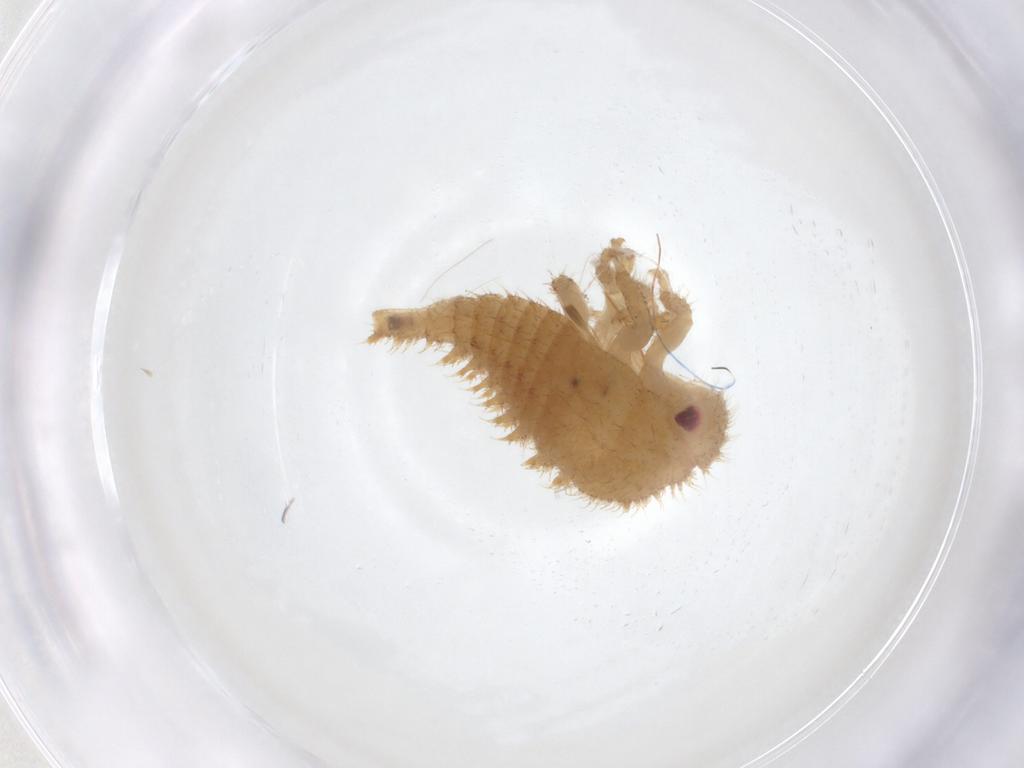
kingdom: Animalia
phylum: Arthropoda
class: Insecta
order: Hemiptera
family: Membracidae
